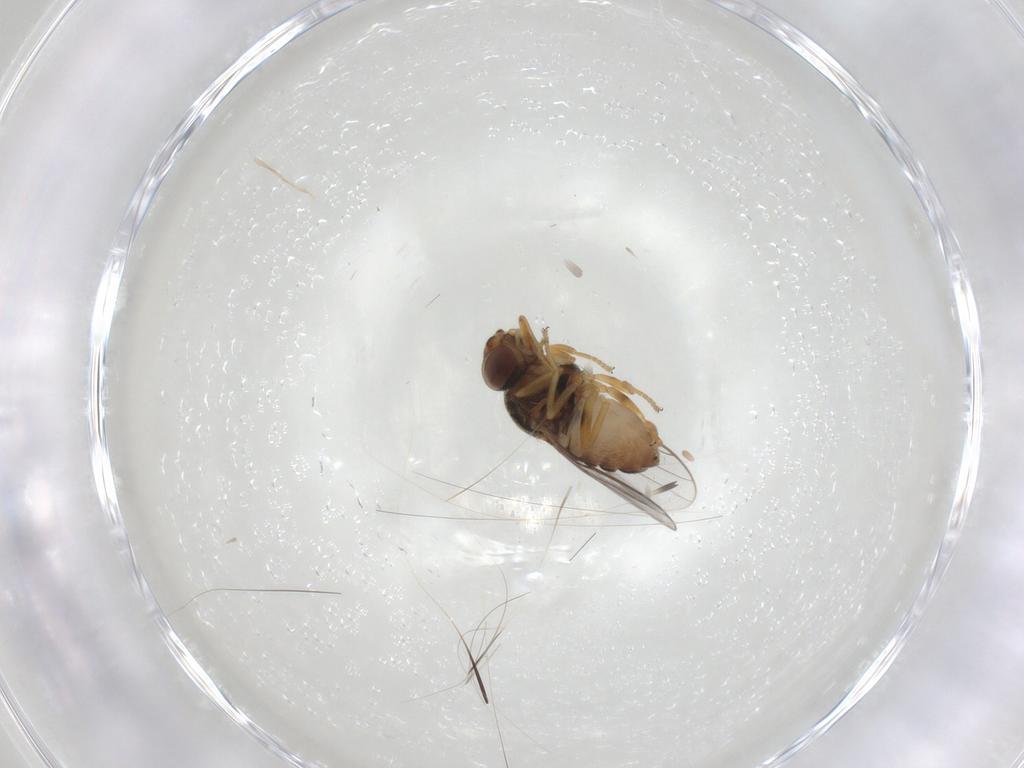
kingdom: Animalia
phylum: Arthropoda
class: Insecta
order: Diptera
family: Chloropidae
